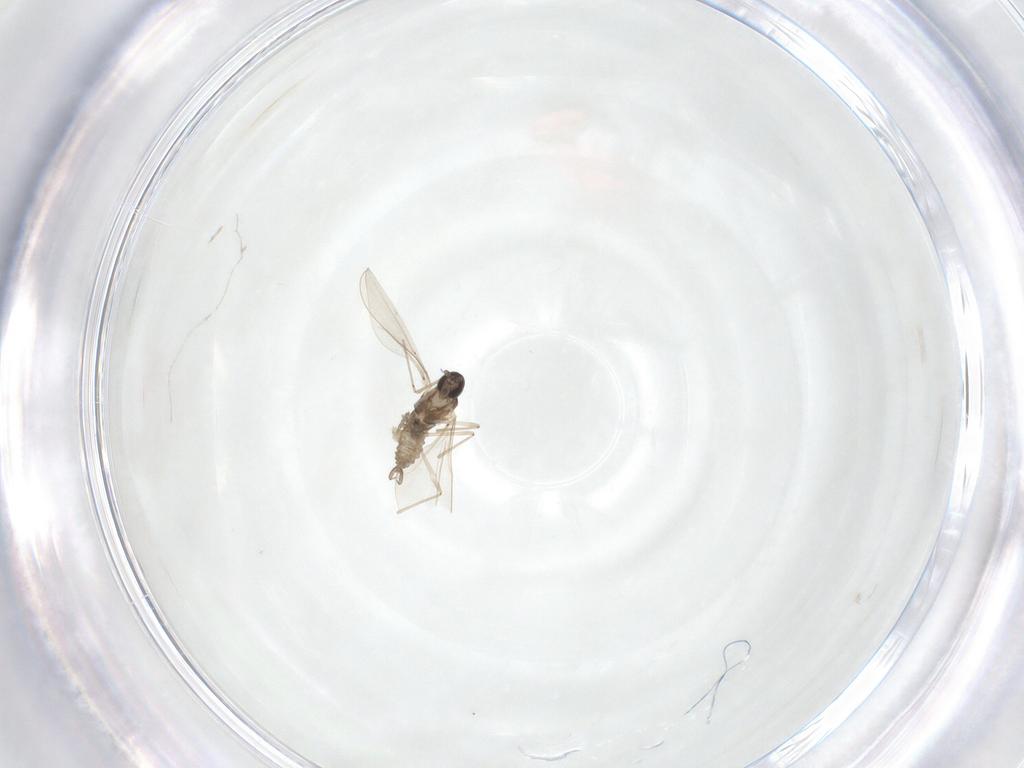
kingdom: Animalia
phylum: Arthropoda
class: Insecta
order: Diptera
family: Cecidomyiidae
